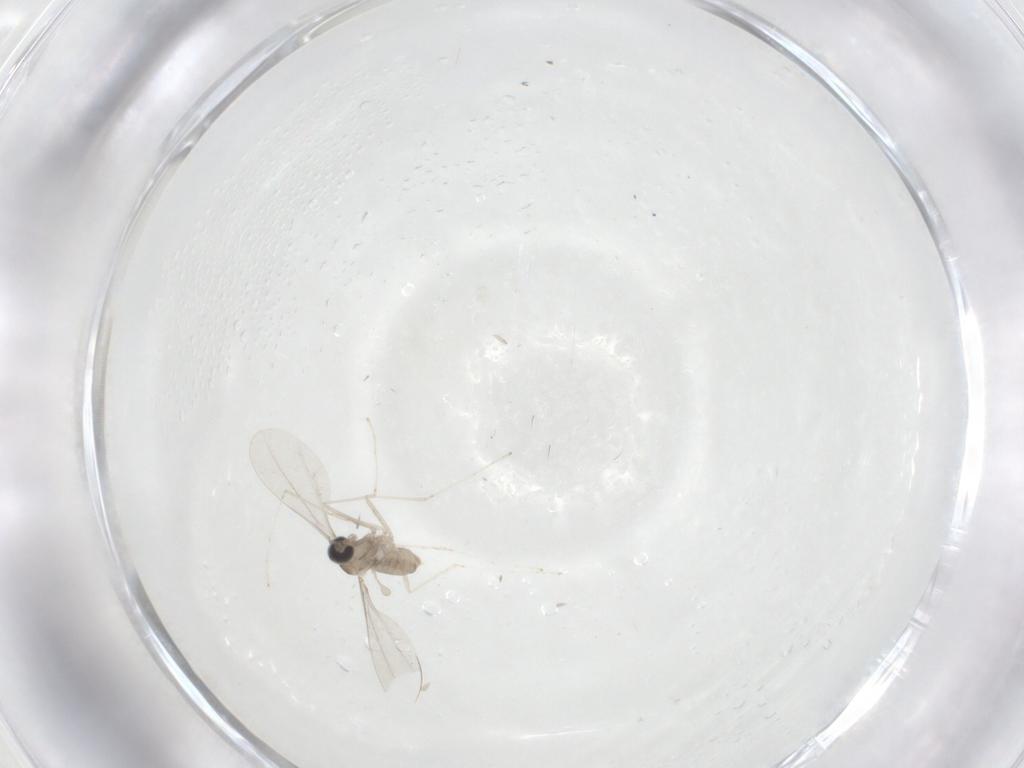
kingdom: Animalia
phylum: Arthropoda
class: Insecta
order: Diptera
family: Cecidomyiidae
